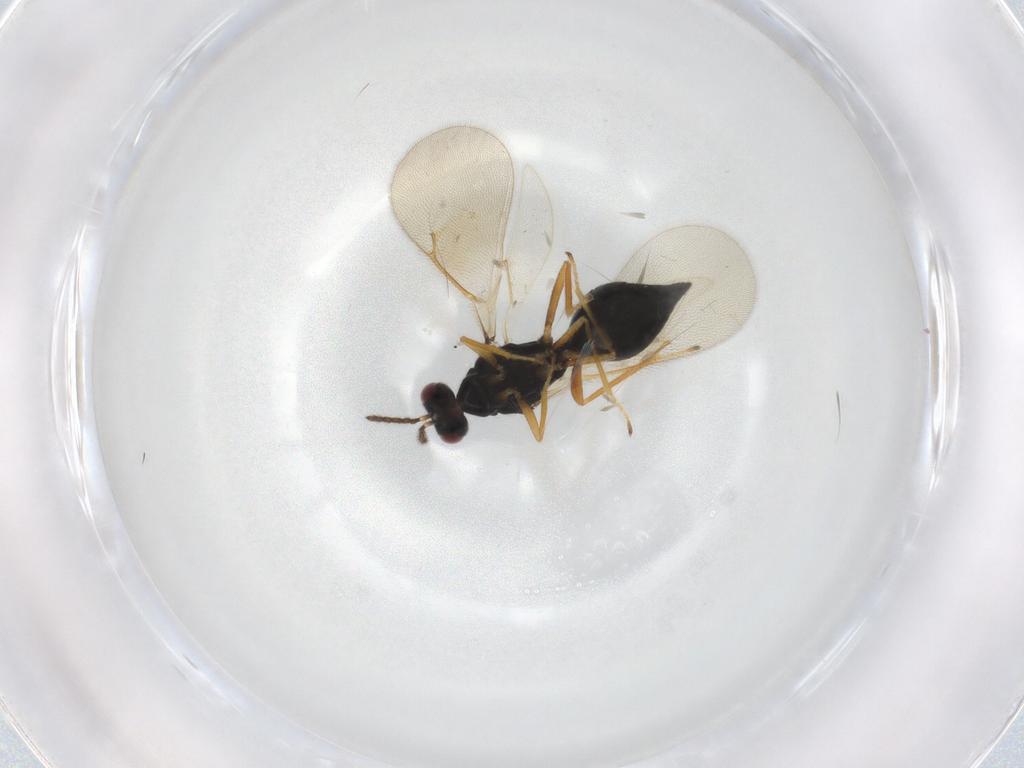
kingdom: Animalia
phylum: Arthropoda
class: Insecta
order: Hymenoptera
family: Eulophidae
